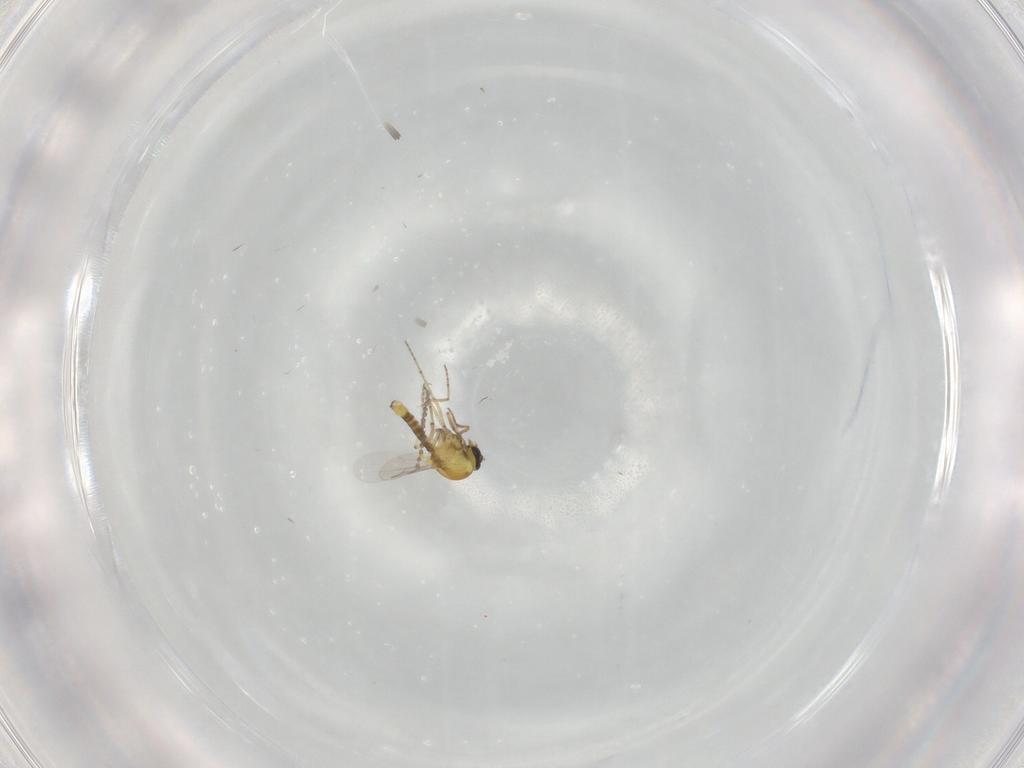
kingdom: Animalia
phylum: Arthropoda
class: Insecta
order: Diptera
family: Ceratopogonidae
